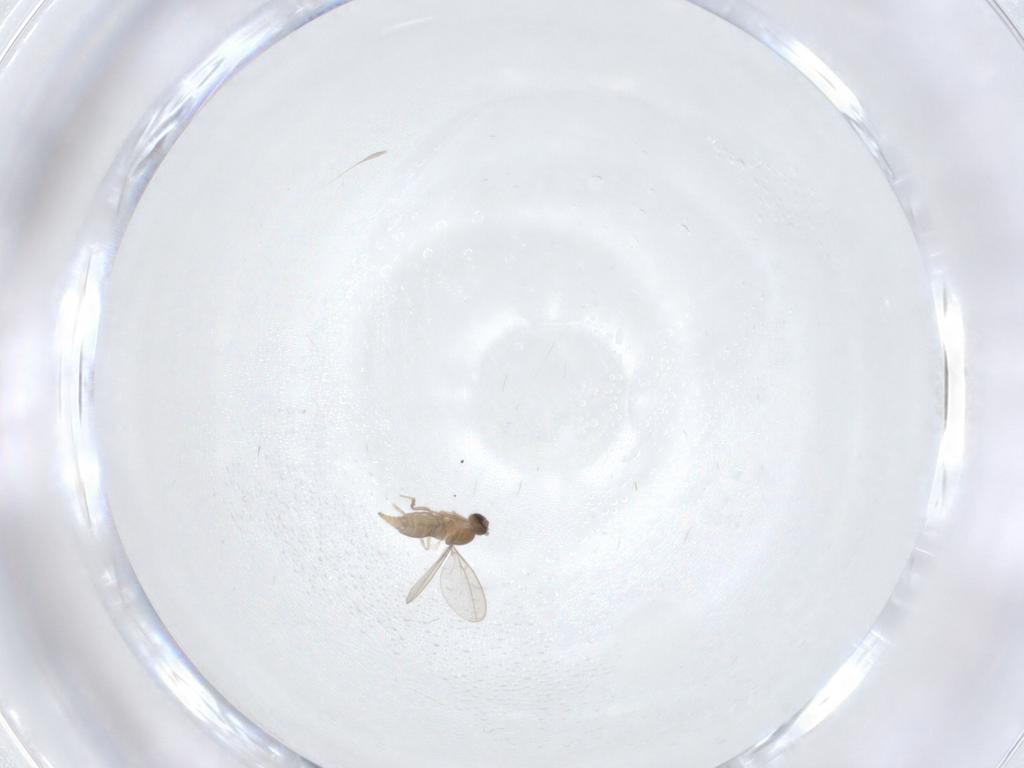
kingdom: Animalia
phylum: Arthropoda
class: Insecta
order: Diptera
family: Cecidomyiidae
